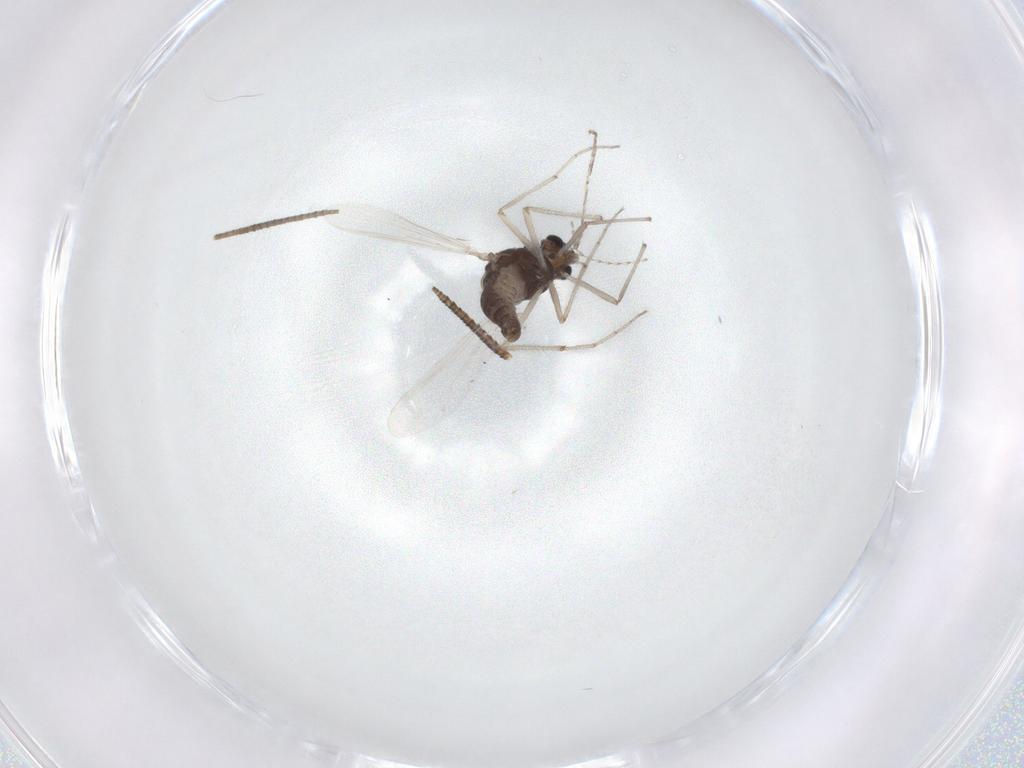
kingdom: Animalia
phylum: Arthropoda
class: Insecta
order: Diptera
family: Chironomidae
